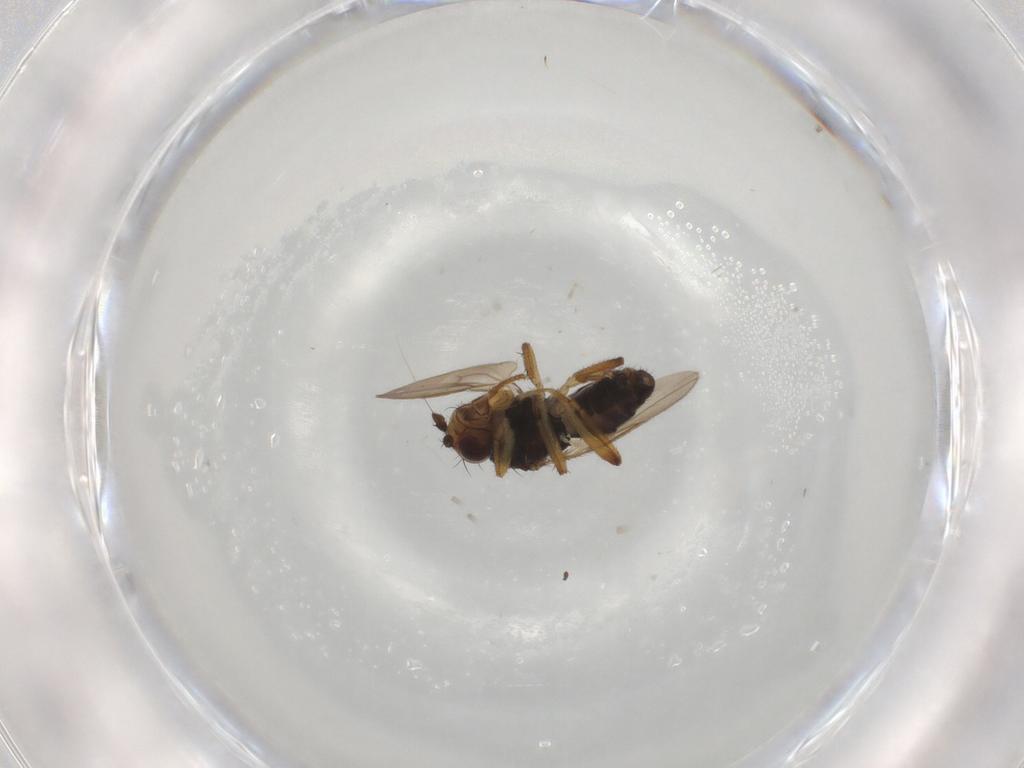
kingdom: Animalia
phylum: Arthropoda
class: Insecta
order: Diptera
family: Sphaeroceridae
